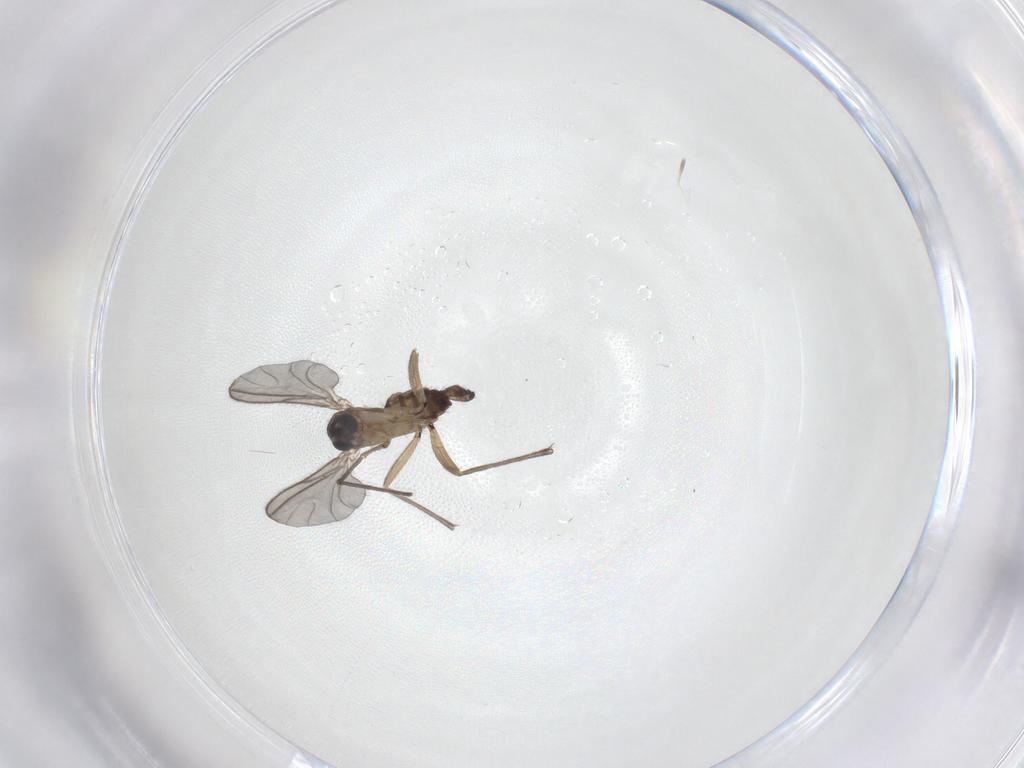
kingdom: Animalia
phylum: Arthropoda
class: Insecta
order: Diptera
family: Sciaridae
